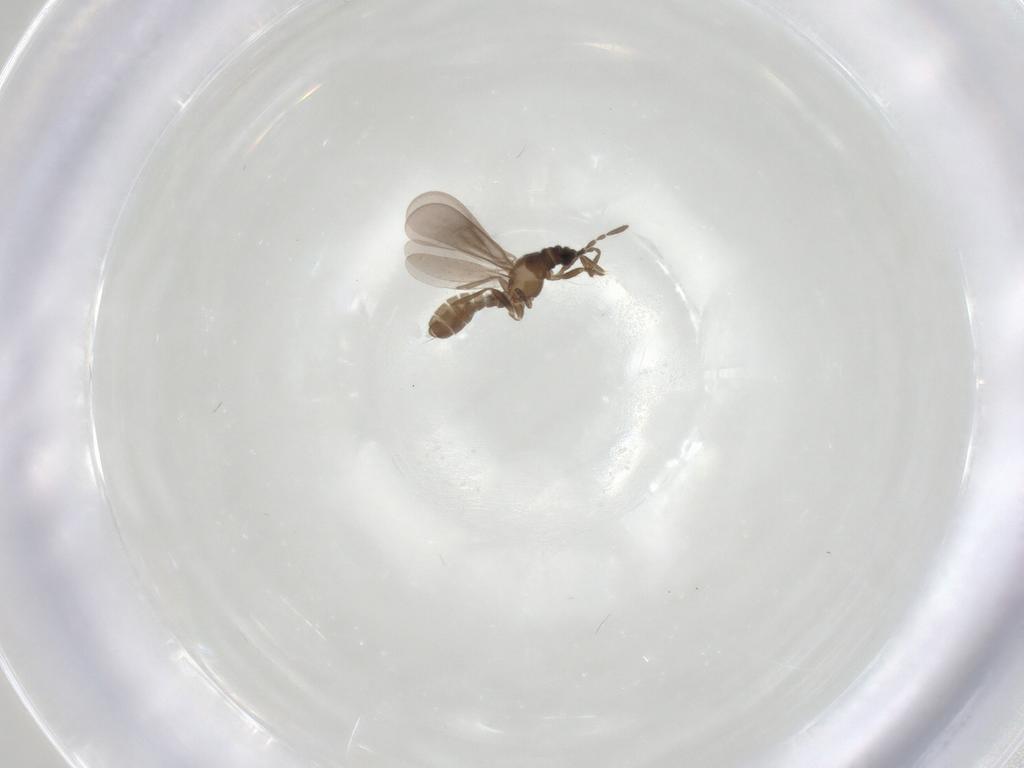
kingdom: Animalia
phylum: Arthropoda
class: Insecta
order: Hemiptera
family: Enicocephalidae
